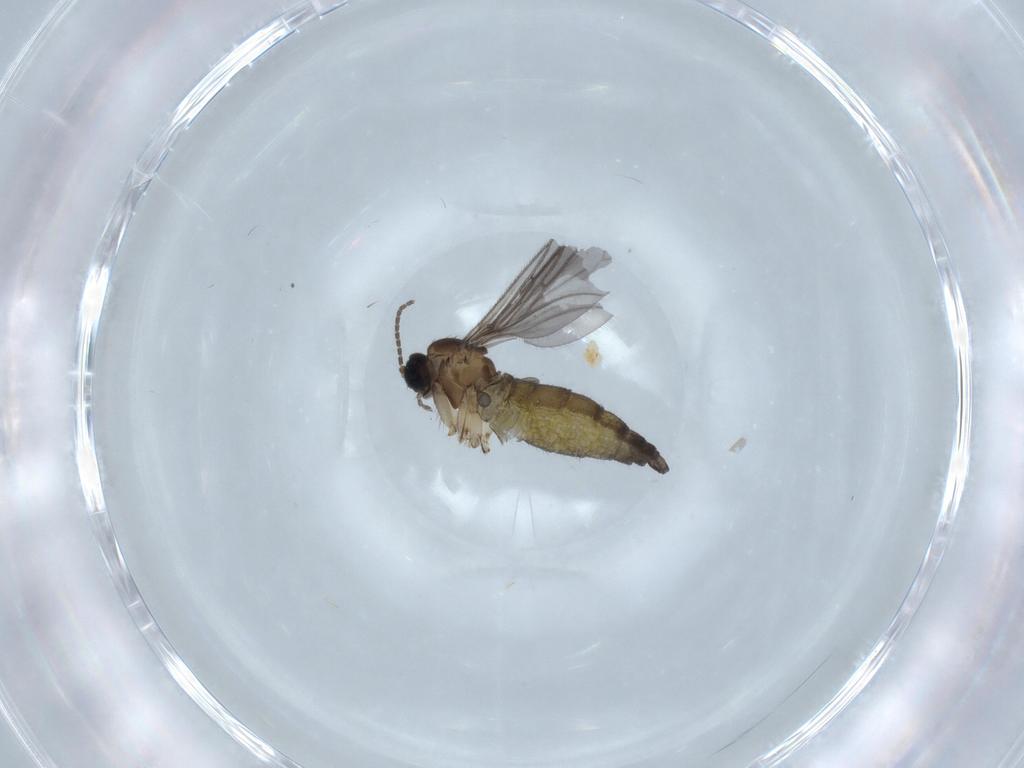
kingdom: Animalia
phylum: Arthropoda
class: Insecta
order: Diptera
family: Sciaridae
